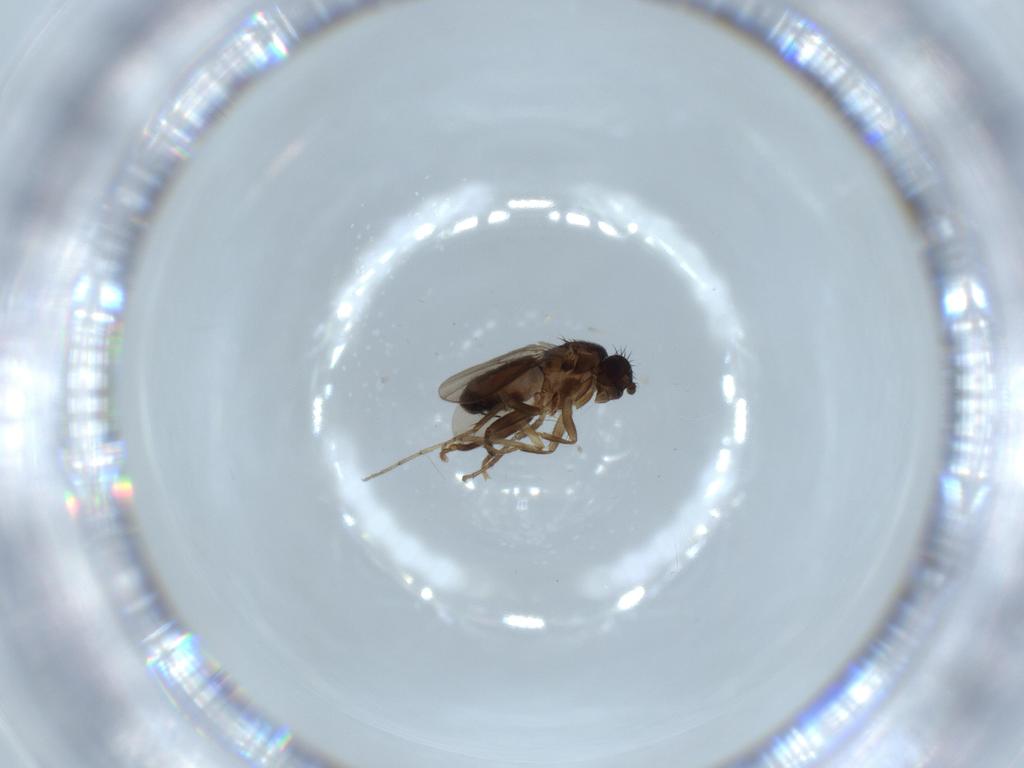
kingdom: Animalia
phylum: Arthropoda
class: Insecta
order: Diptera
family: Sphaeroceridae
